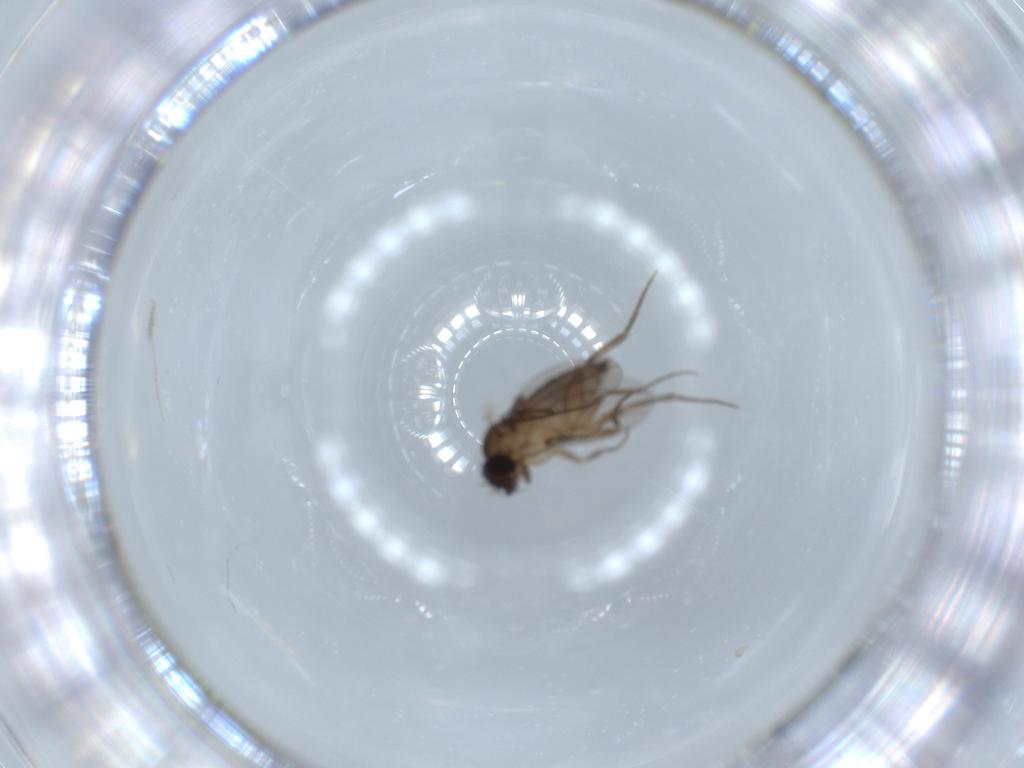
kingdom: Animalia
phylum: Arthropoda
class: Insecta
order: Diptera
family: Phoridae
